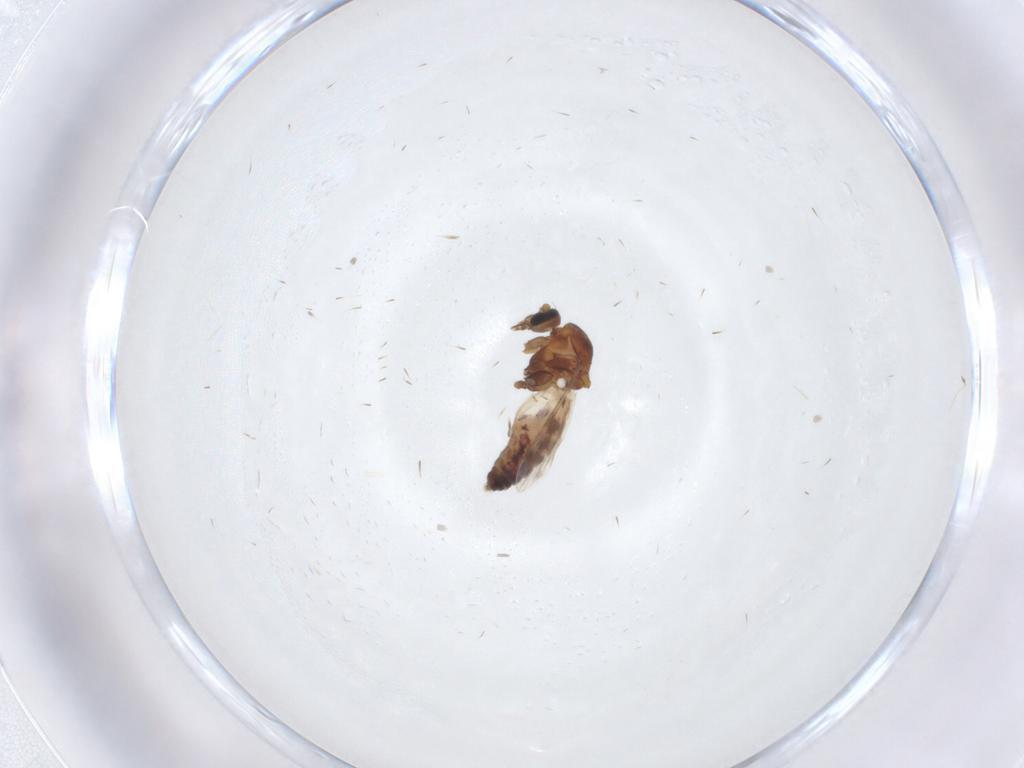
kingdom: Animalia
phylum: Arthropoda
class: Insecta
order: Diptera
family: Ceratopogonidae
